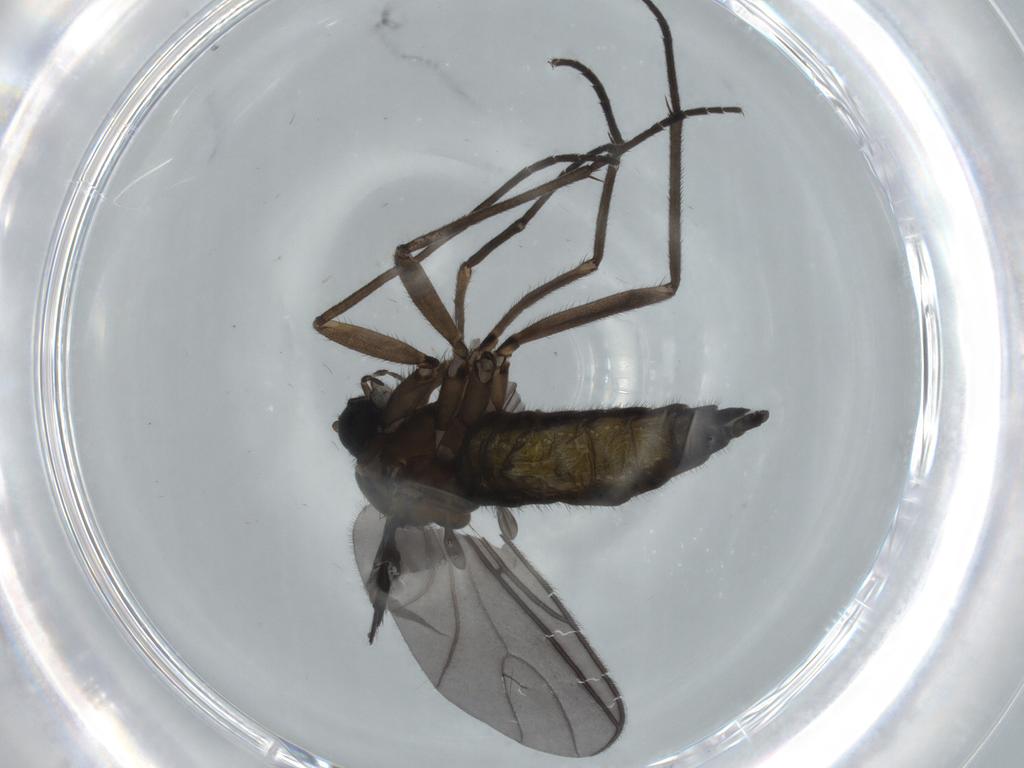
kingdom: Animalia
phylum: Arthropoda
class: Insecta
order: Diptera
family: Sciaridae
